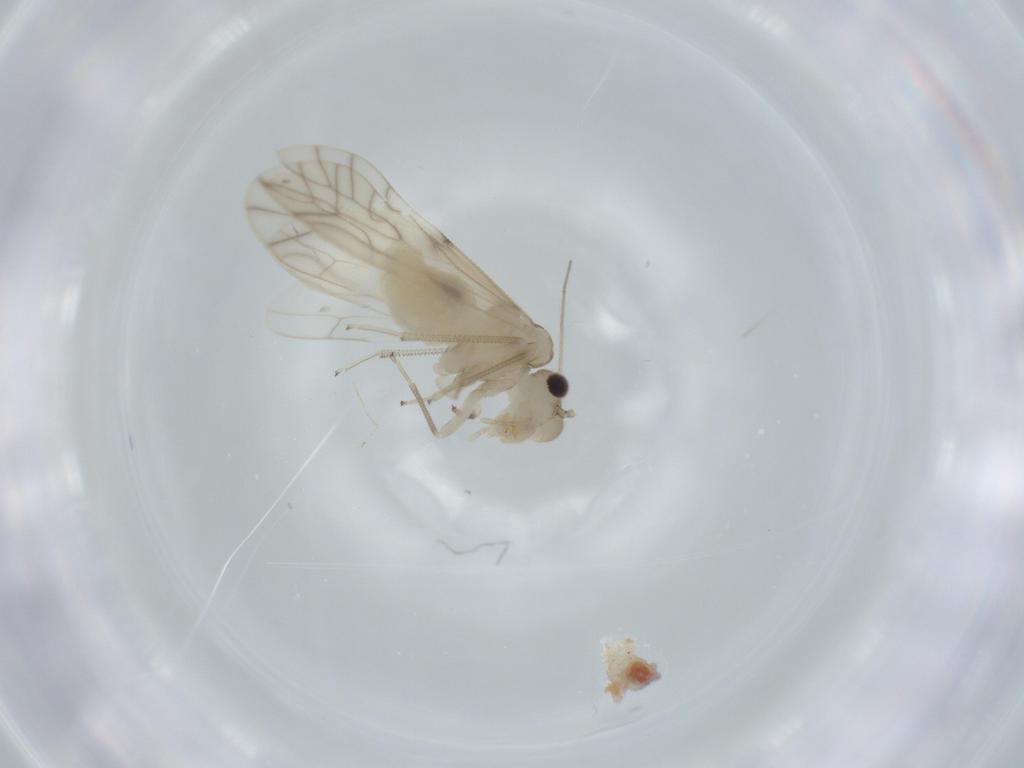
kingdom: Animalia
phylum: Arthropoda
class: Insecta
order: Psocodea
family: Caeciliusidae
